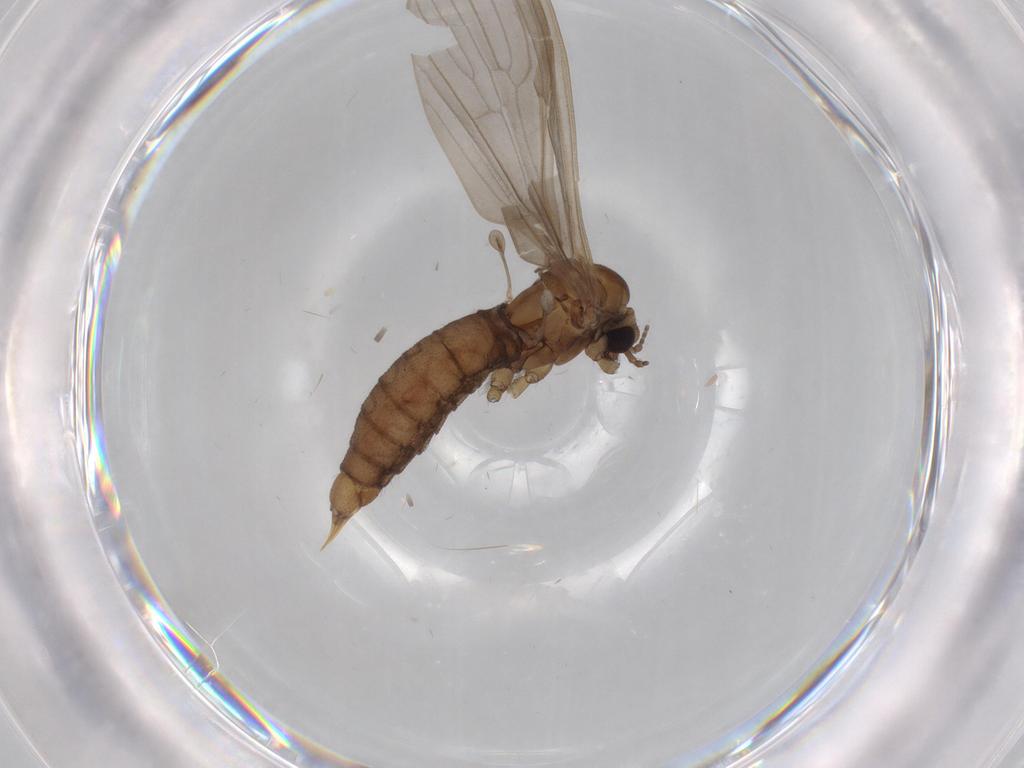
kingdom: Animalia
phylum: Arthropoda
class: Insecta
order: Diptera
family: Limoniidae
